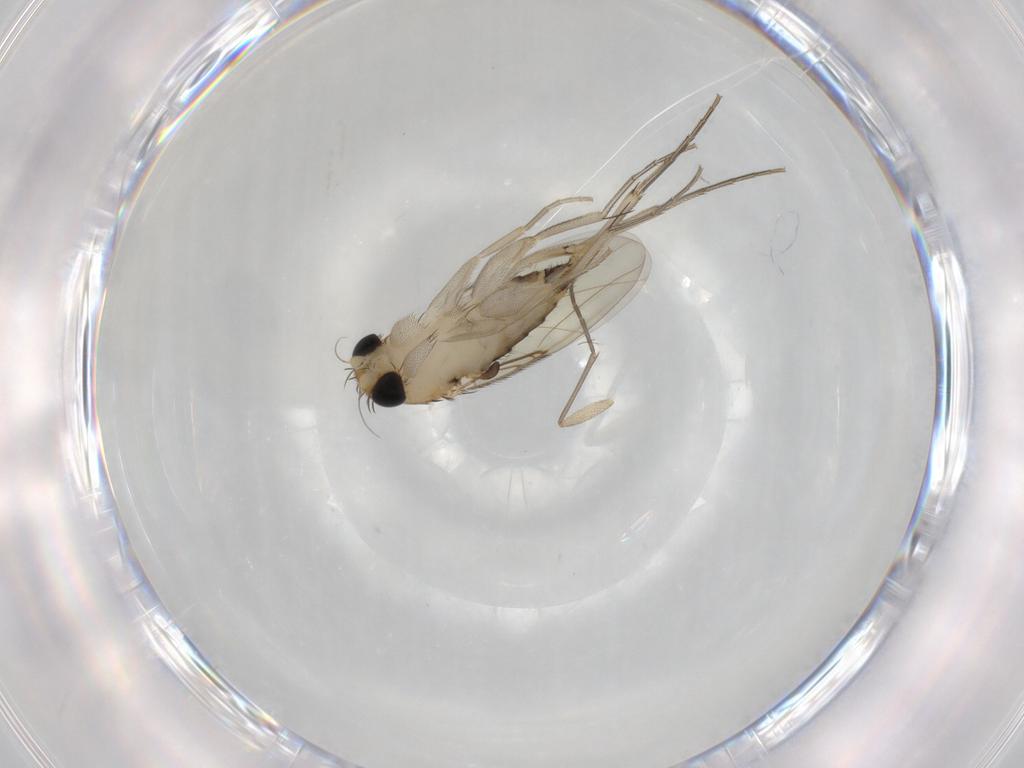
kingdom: Animalia
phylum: Arthropoda
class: Insecta
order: Diptera
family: Phoridae
